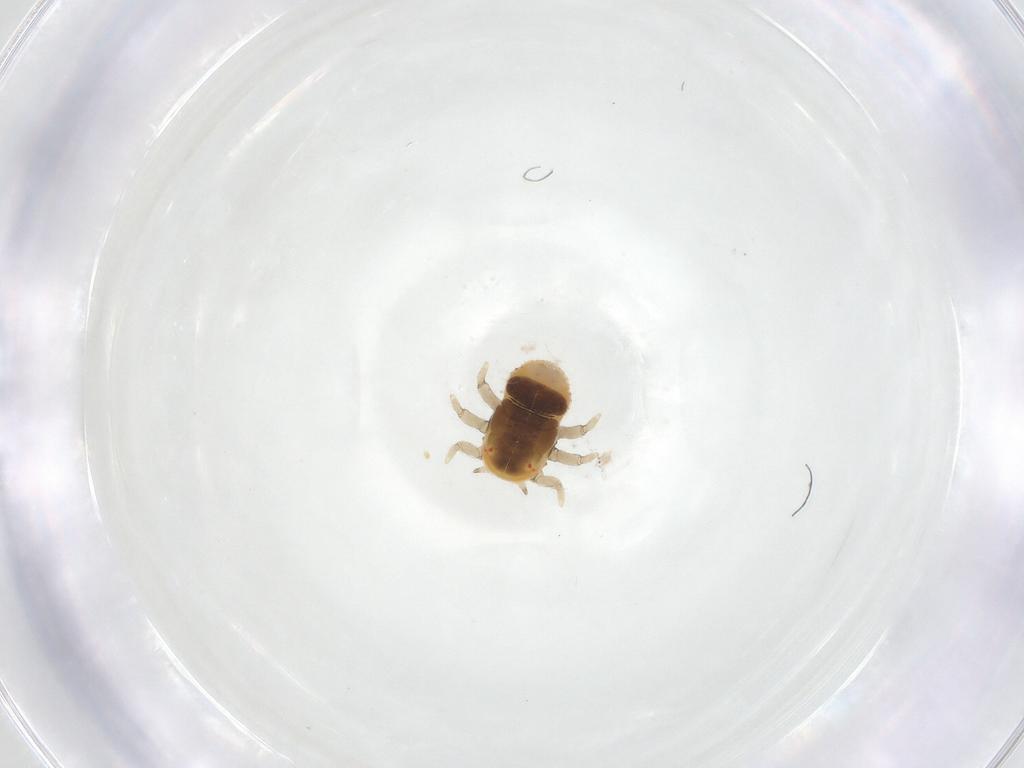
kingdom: Animalia
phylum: Arthropoda
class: Insecta
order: Hemiptera
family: Triozidae
